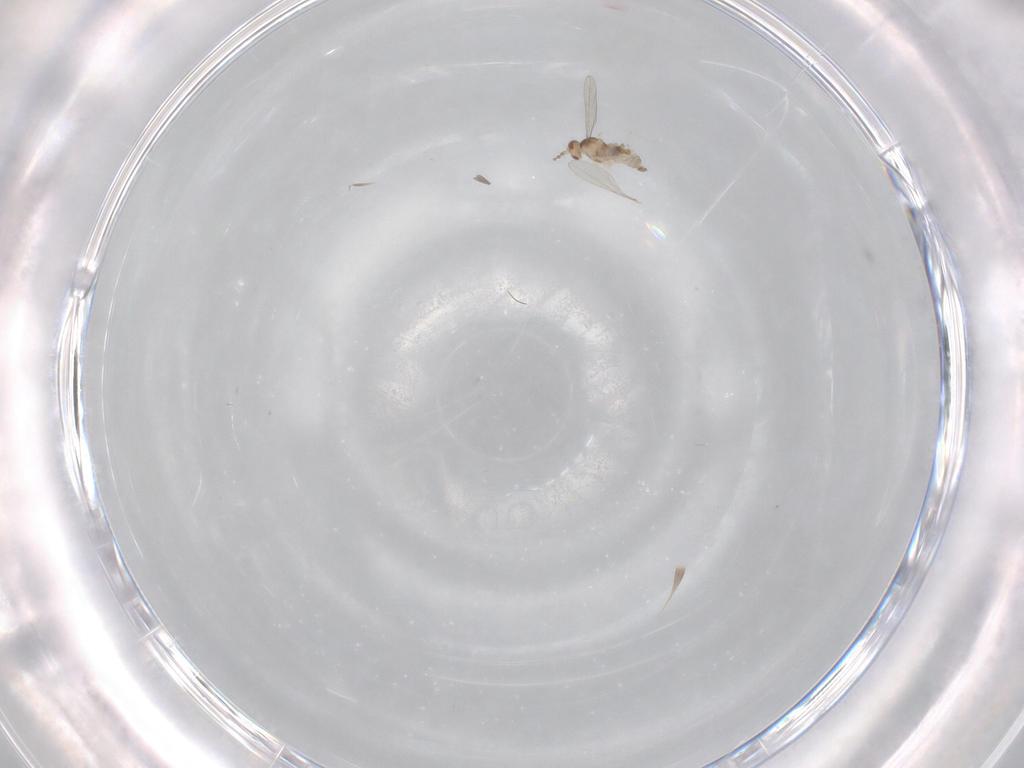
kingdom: Animalia
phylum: Arthropoda
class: Insecta
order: Diptera
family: Cecidomyiidae
